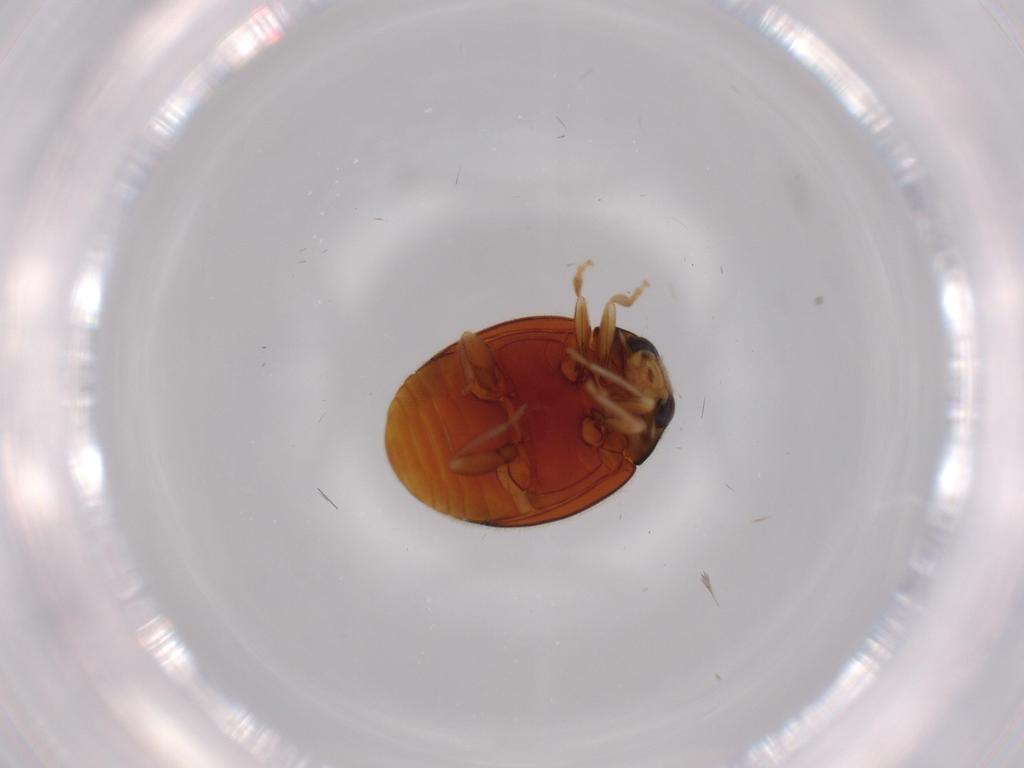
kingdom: Animalia
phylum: Arthropoda
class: Insecta
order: Coleoptera
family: Coccinellidae
